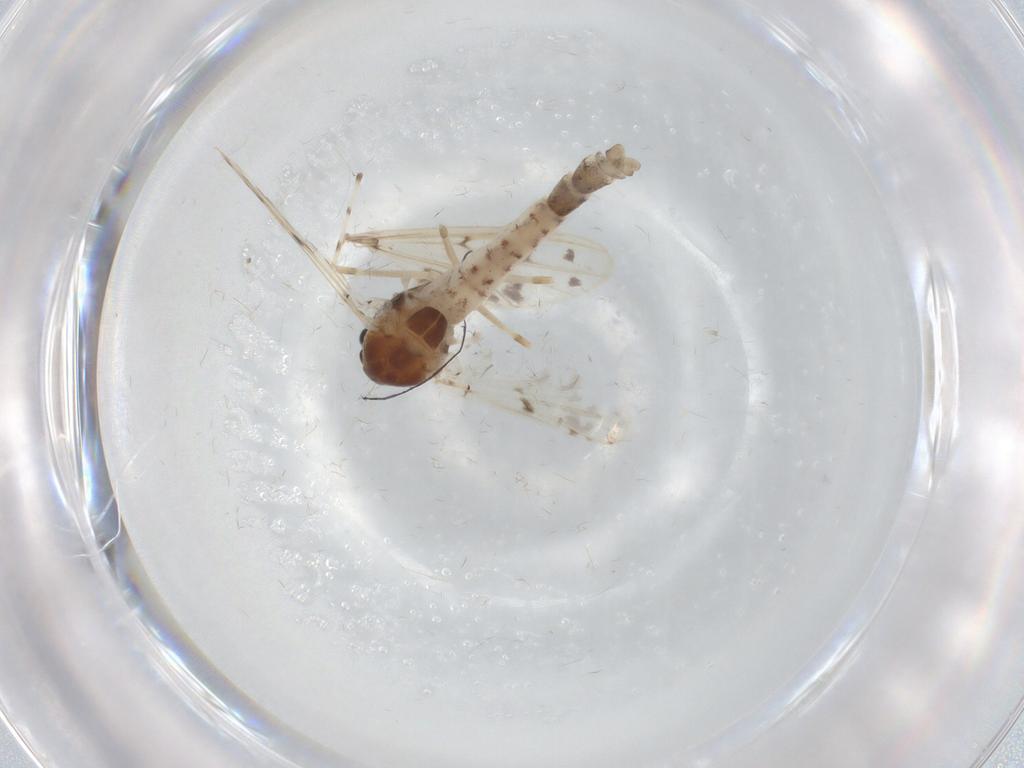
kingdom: Animalia
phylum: Arthropoda
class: Insecta
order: Diptera
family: Chironomidae
